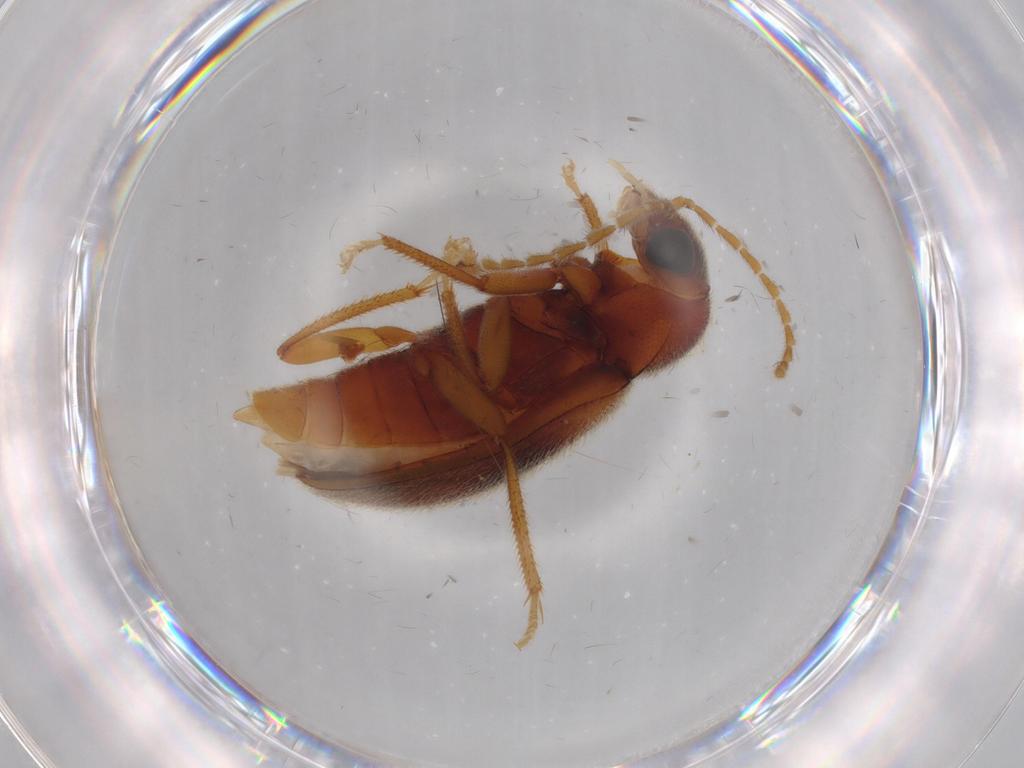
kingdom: Animalia
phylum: Arthropoda
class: Insecta
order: Coleoptera
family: Ptilodactylidae
